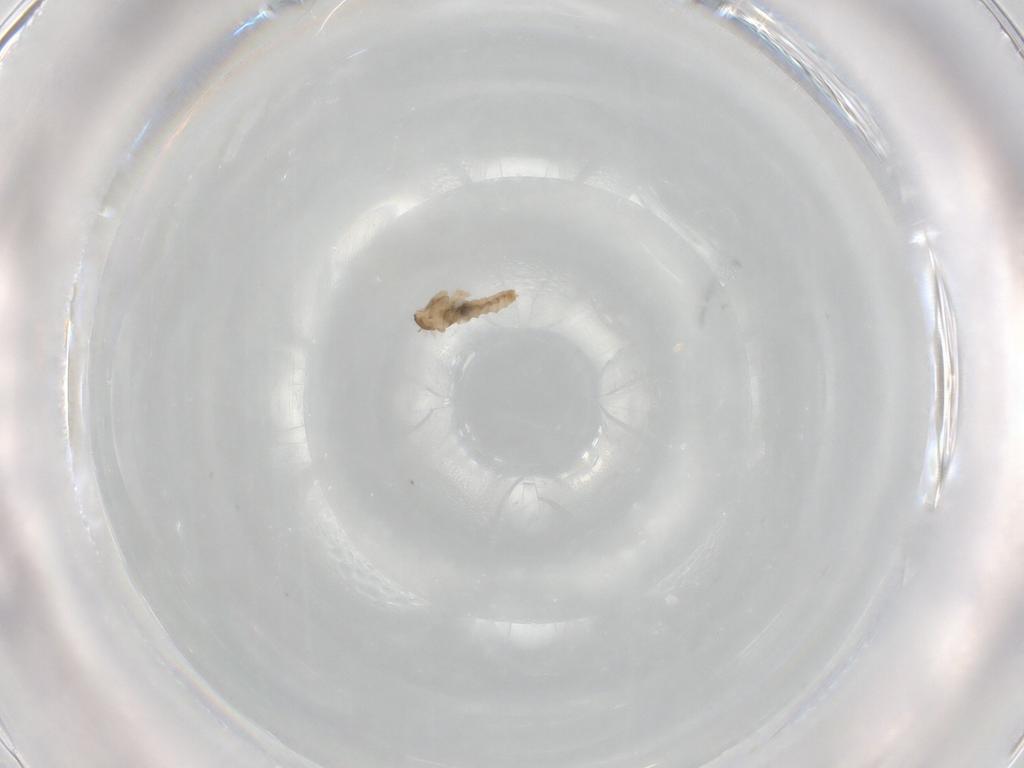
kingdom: Animalia
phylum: Arthropoda
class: Insecta
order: Diptera
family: Cecidomyiidae
